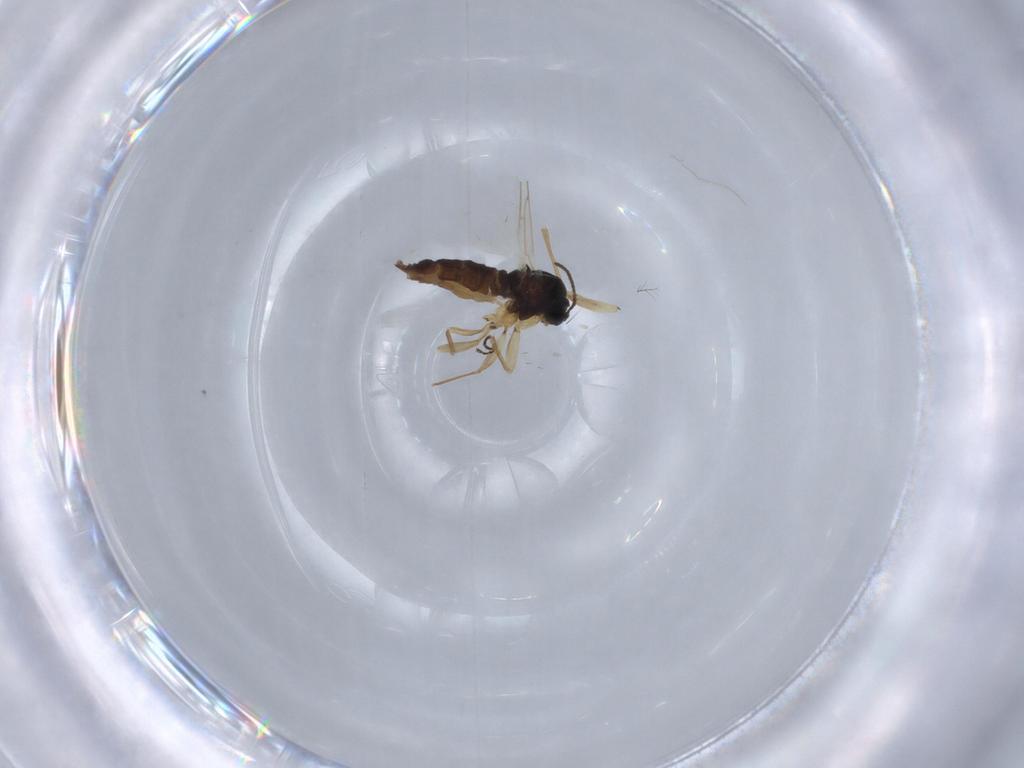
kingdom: Animalia
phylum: Arthropoda
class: Insecta
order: Diptera
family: Sciaridae
